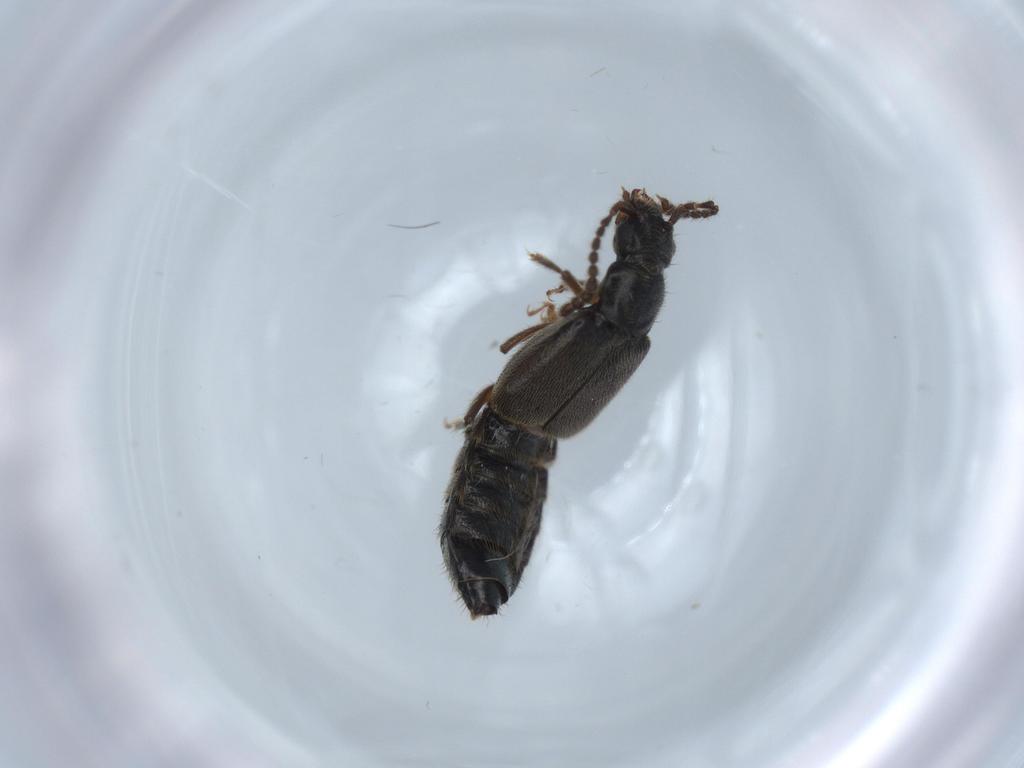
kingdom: Animalia
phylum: Arthropoda
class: Insecta
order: Coleoptera
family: Staphylinidae
